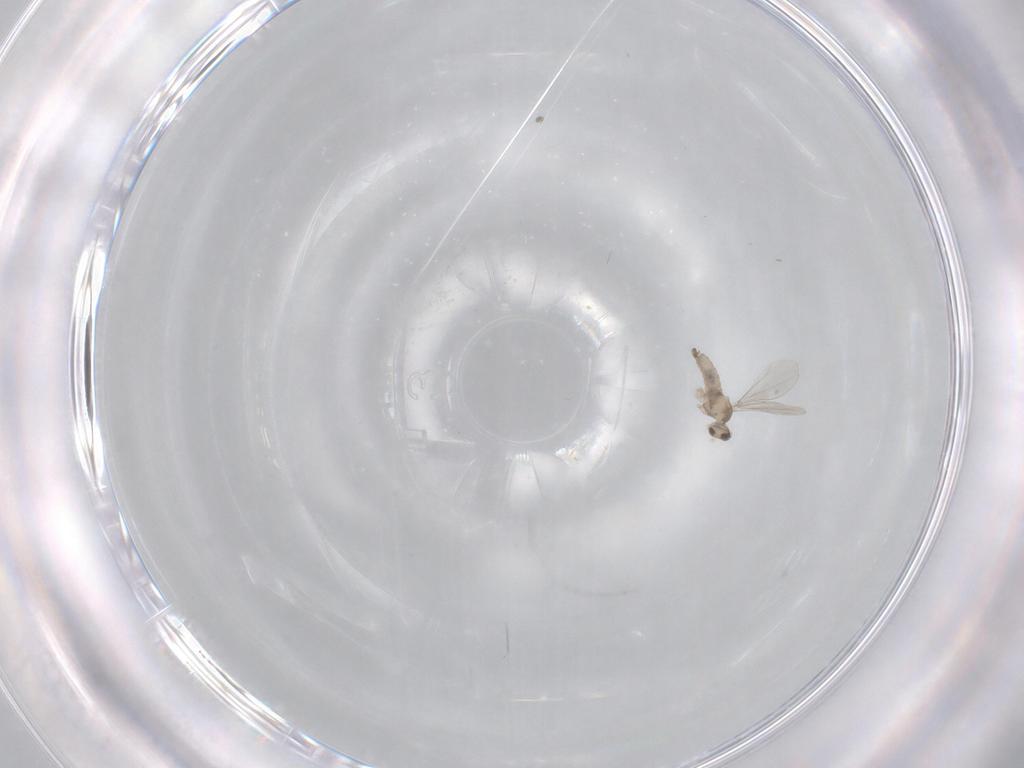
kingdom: Animalia
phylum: Arthropoda
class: Insecta
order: Diptera
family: Cecidomyiidae
